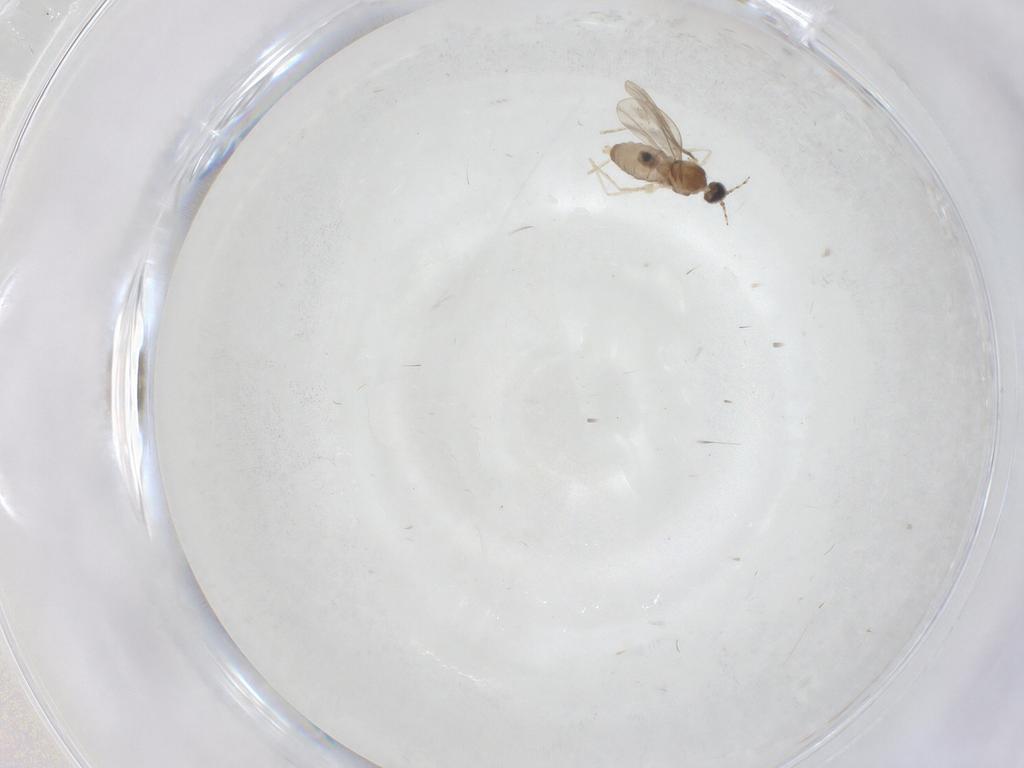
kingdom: Animalia
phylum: Arthropoda
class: Insecta
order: Diptera
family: Cecidomyiidae
